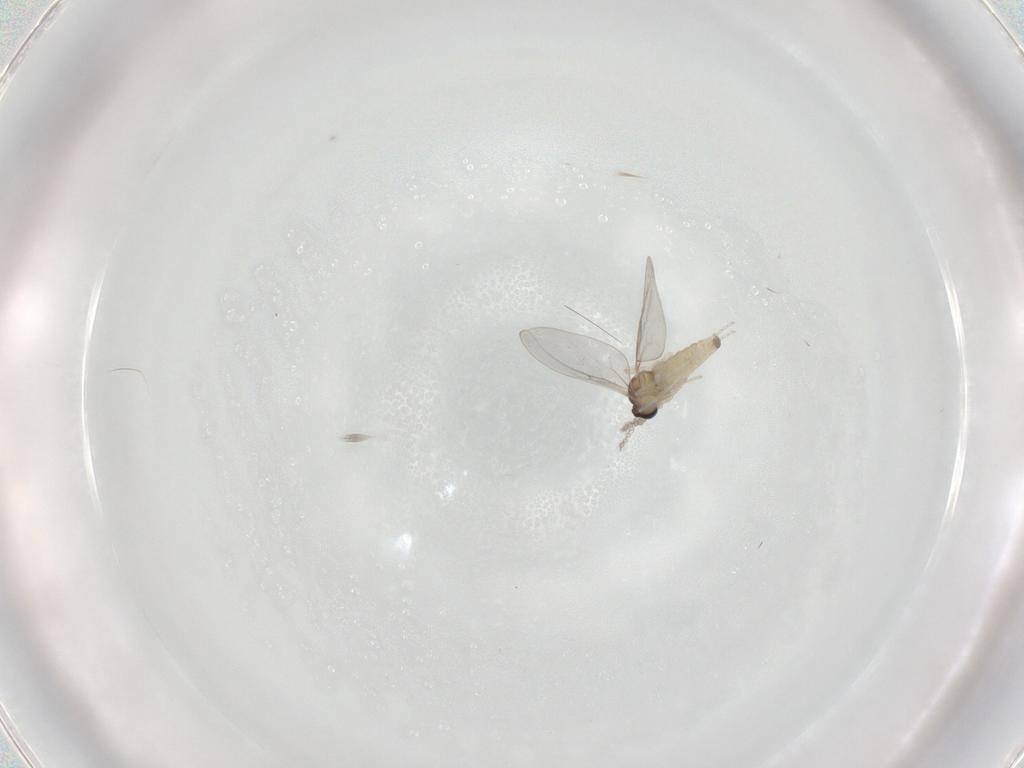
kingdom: Animalia
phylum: Arthropoda
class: Insecta
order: Diptera
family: Cecidomyiidae
